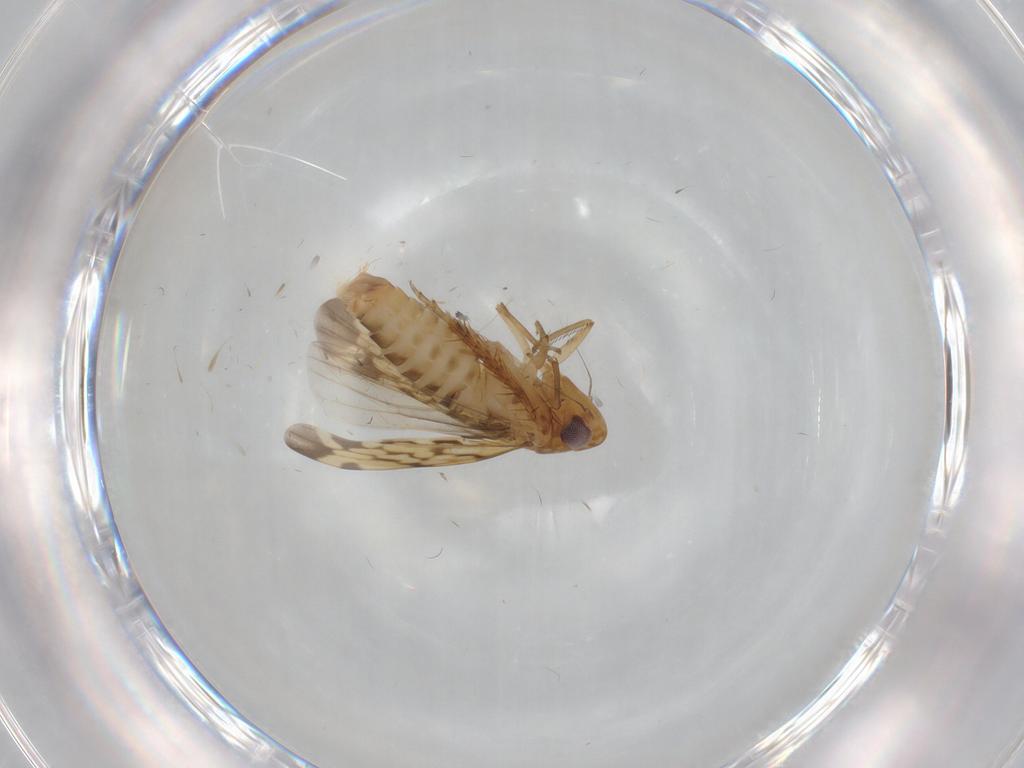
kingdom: Animalia
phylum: Arthropoda
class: Insecta
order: Hemiptera
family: Cicadellidae
